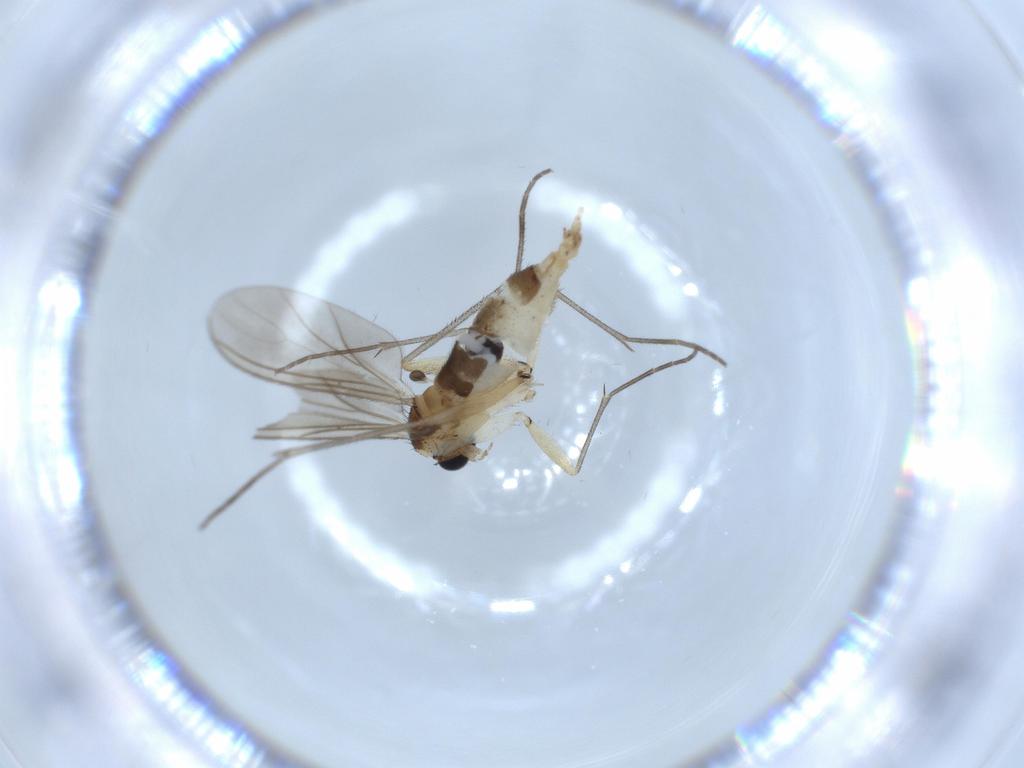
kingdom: Animalia
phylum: Arthropoda
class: Insecta
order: Diptera
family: Sciaridae
